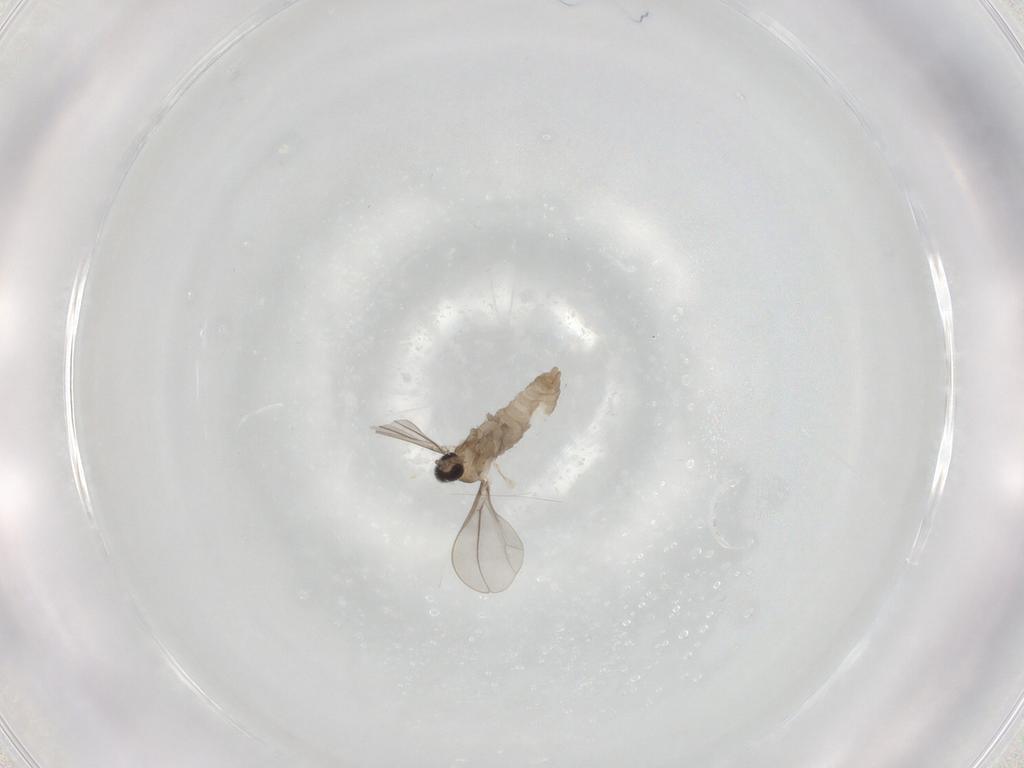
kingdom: Animalia
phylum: Arthropoda
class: Insecta
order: Diptera
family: Cecidomyiidae
